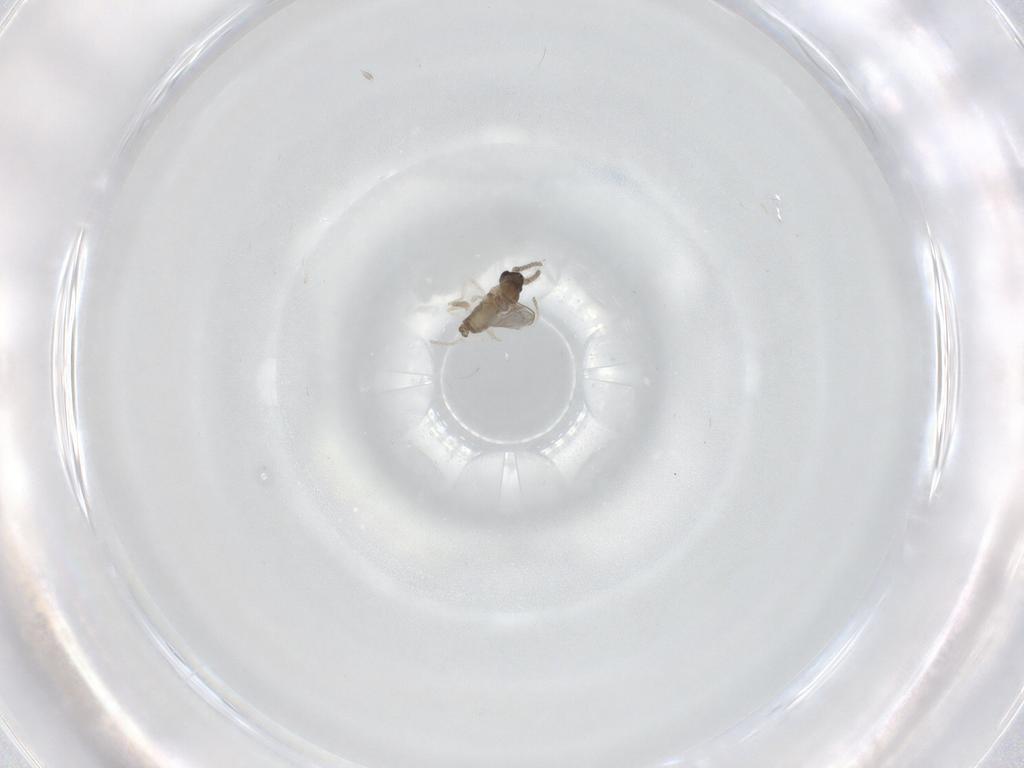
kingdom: Animalia
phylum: Arthropoda
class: Insecta
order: Diptera
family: Cecidomyiidae
